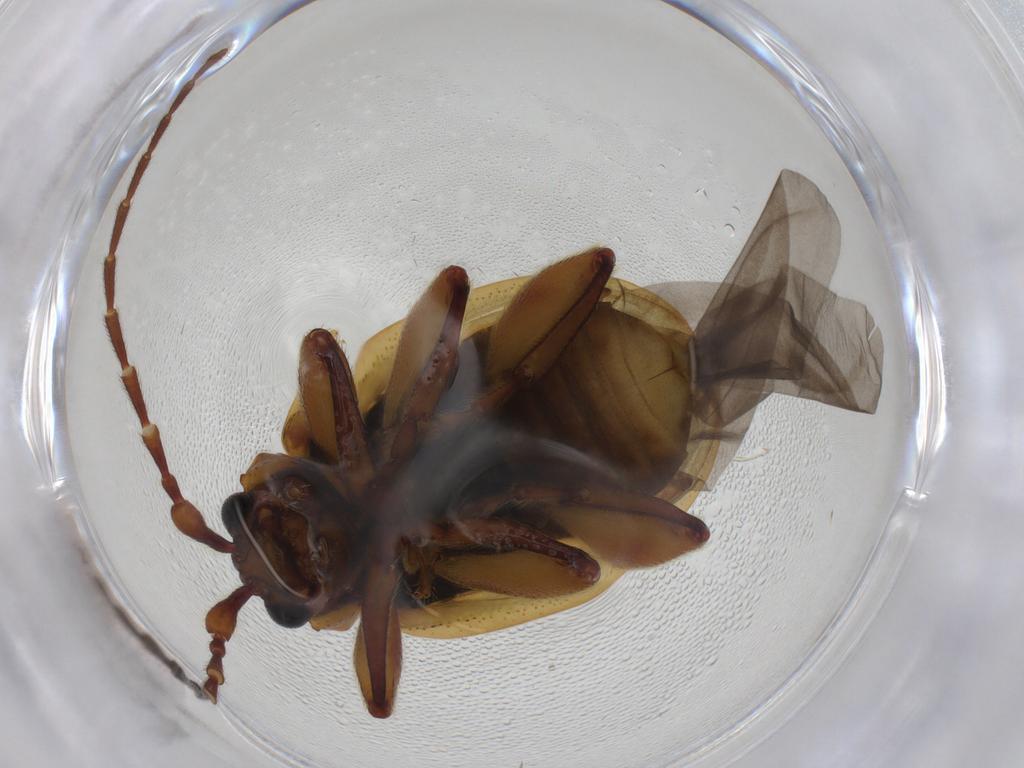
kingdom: Animalia
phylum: Arthropoda
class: Insecta
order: Coleoptera
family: Chrysomelidae
